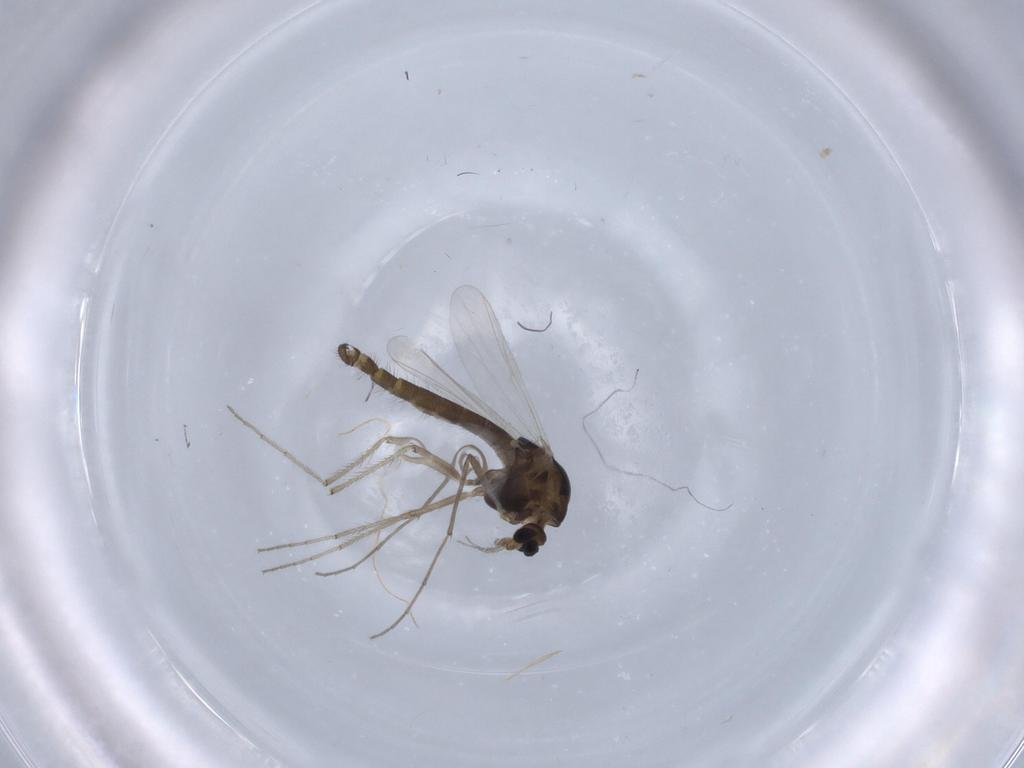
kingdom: Animalia
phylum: Arthropoda
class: Insecta
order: Diptera
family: Chironomidae
